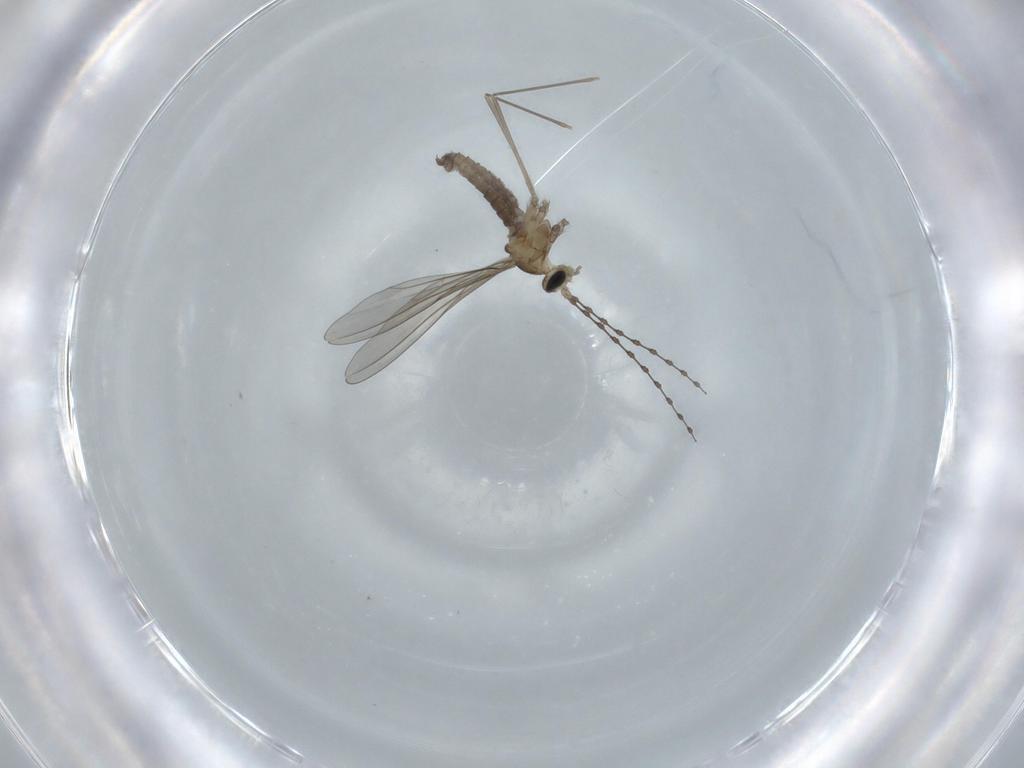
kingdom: Animalia
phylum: Arthropoda
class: Insecta
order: Diptera
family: Cecidomyiidae
